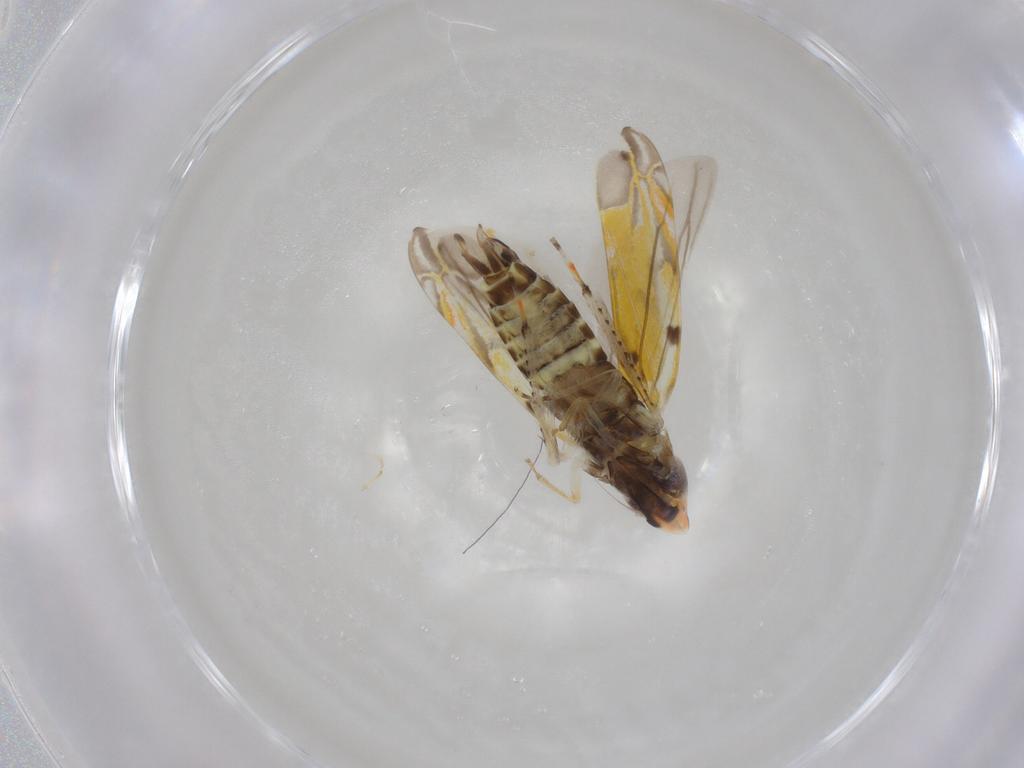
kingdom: Animalia
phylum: Arthropoda
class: Insecta
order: Hemiptera
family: Cicadellidae
